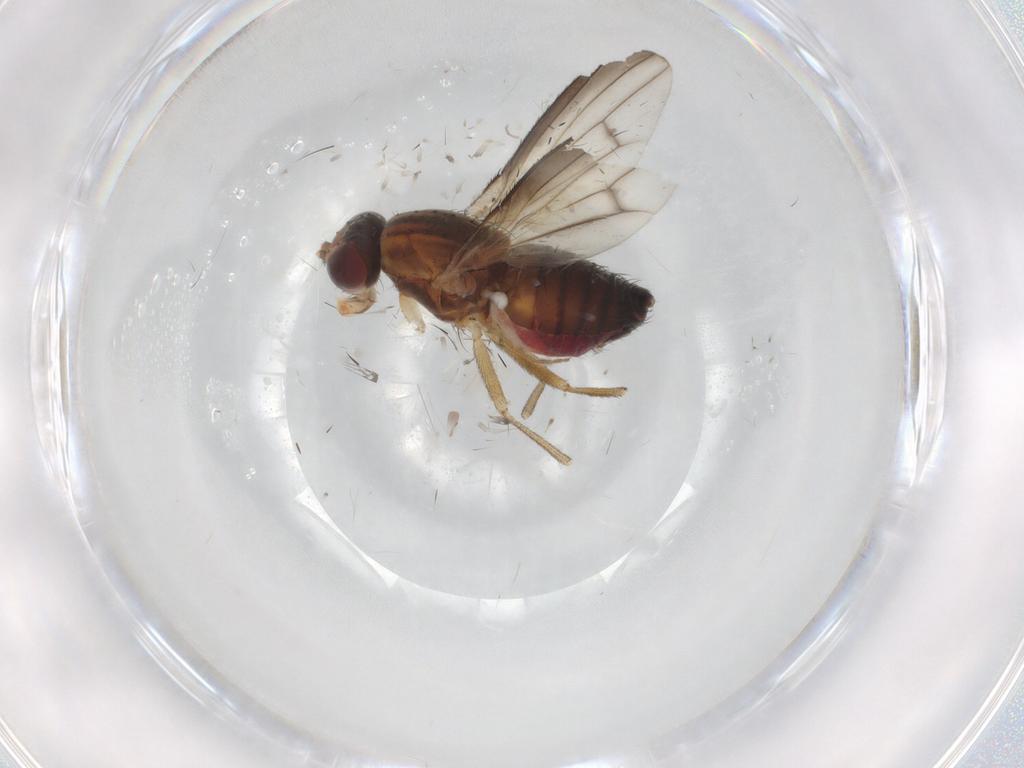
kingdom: Animalia
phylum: Arthropoda
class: Insecta
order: Diptera
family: Heleomyzidae
